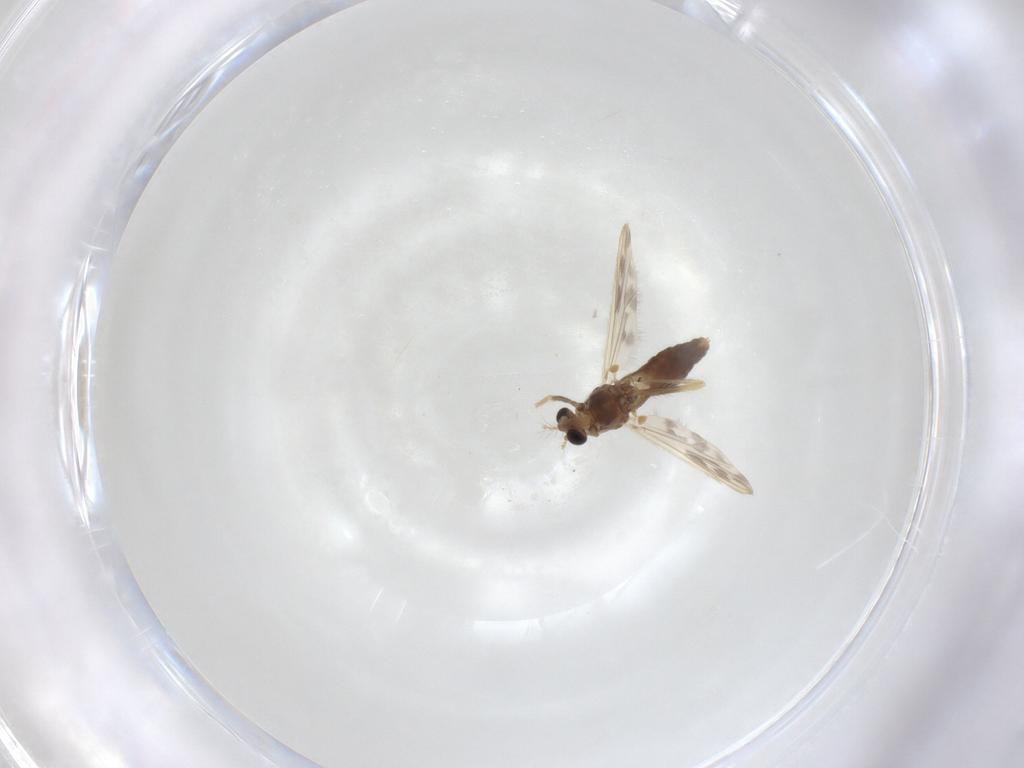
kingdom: Animalia
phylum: Arthropoda
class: Insecta
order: Diptera
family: Chironomidae
